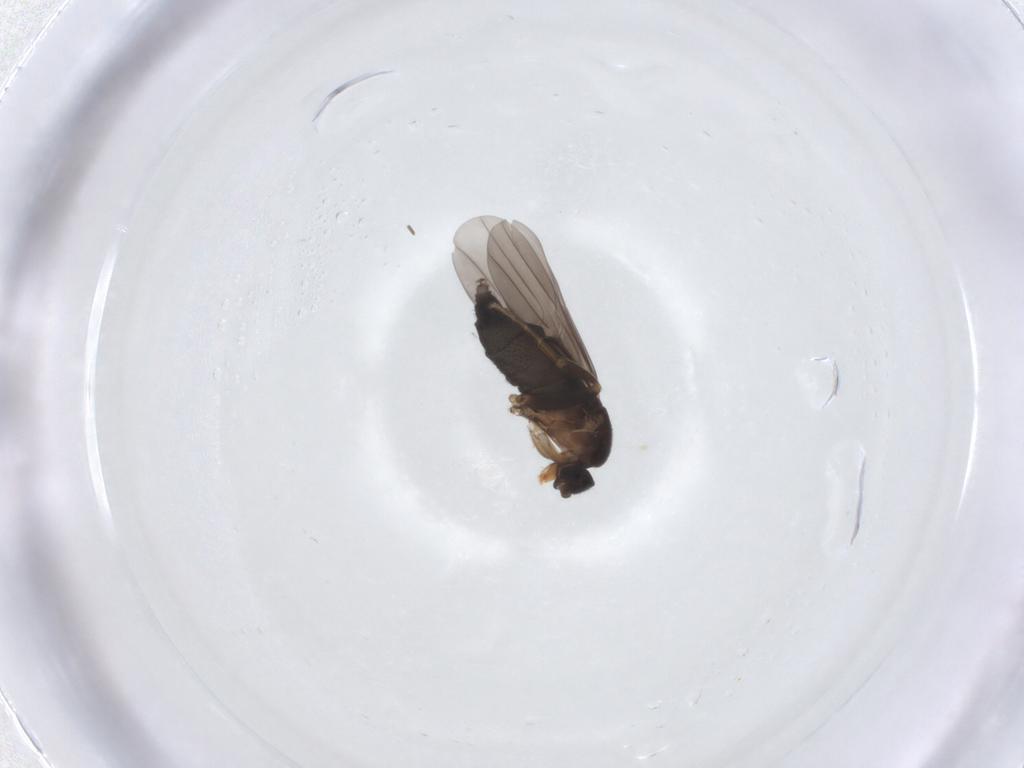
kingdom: Animalia
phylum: Arthropoda
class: Insecta
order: Diptera
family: Phoridae
